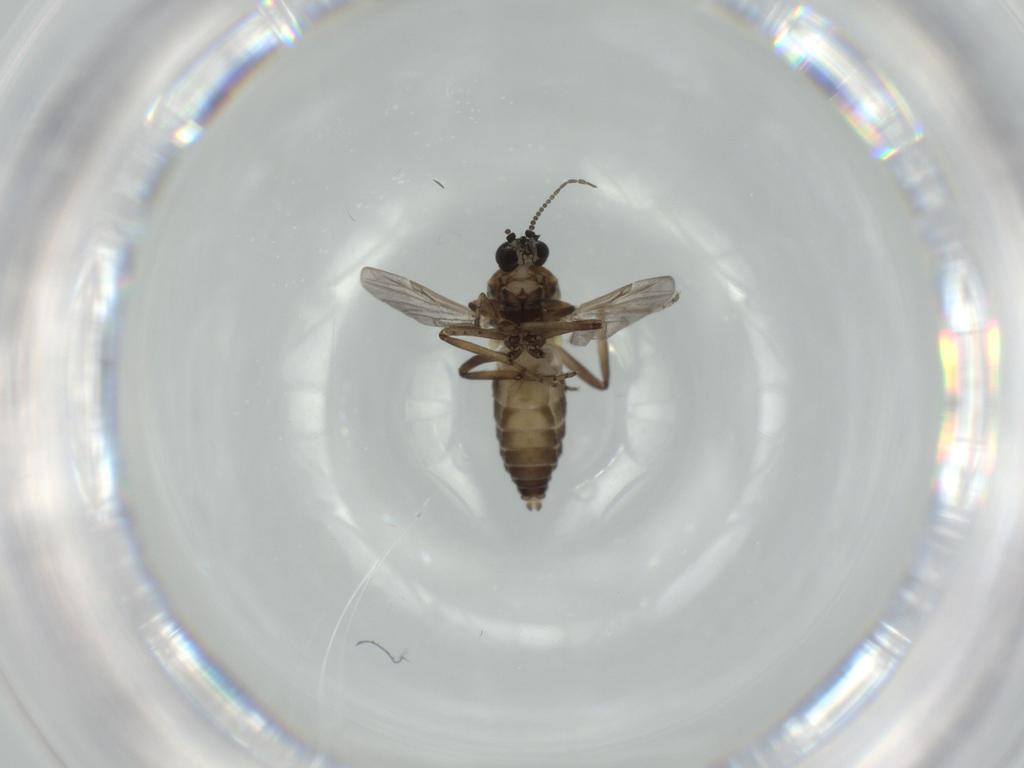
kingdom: Animalia
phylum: Arthropoda
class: Insecta
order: Diptera
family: Ceratopogonidae
